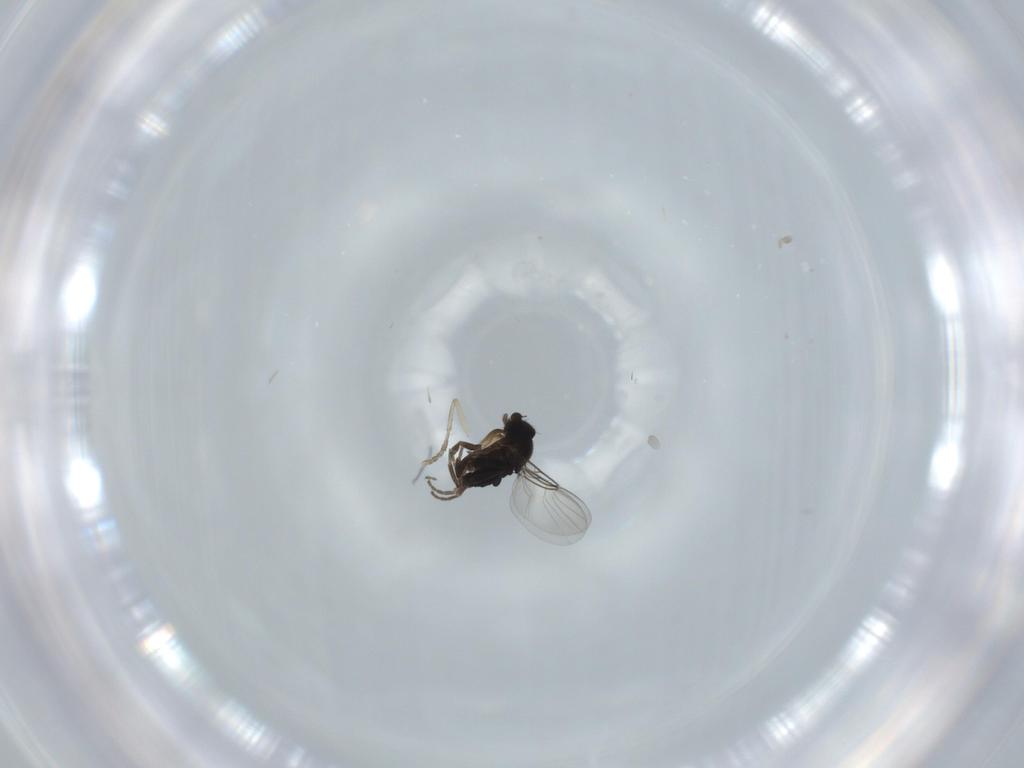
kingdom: Animalia
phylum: Arthropoda
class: Insecta
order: Diptera
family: Phoridae
